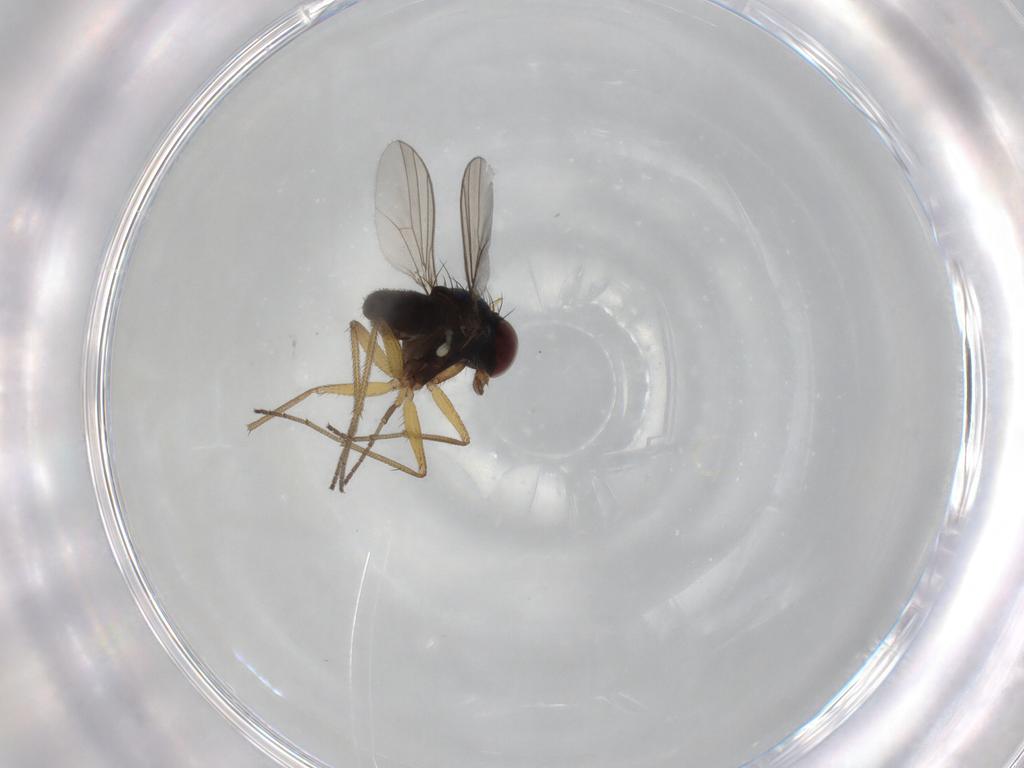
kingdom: Animalia
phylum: Arthropoda
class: Insecta
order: Diptera
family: Dolichopodidae
